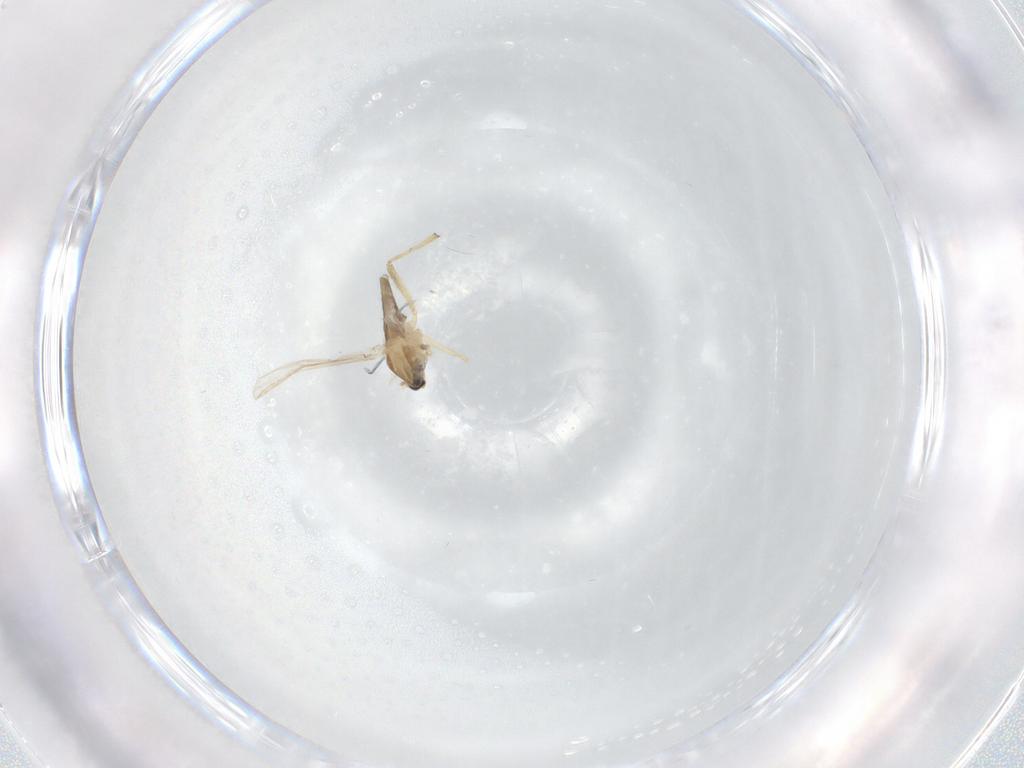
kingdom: Animalia
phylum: Arthropoda
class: Insecta
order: Diptera
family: Chironomidae
